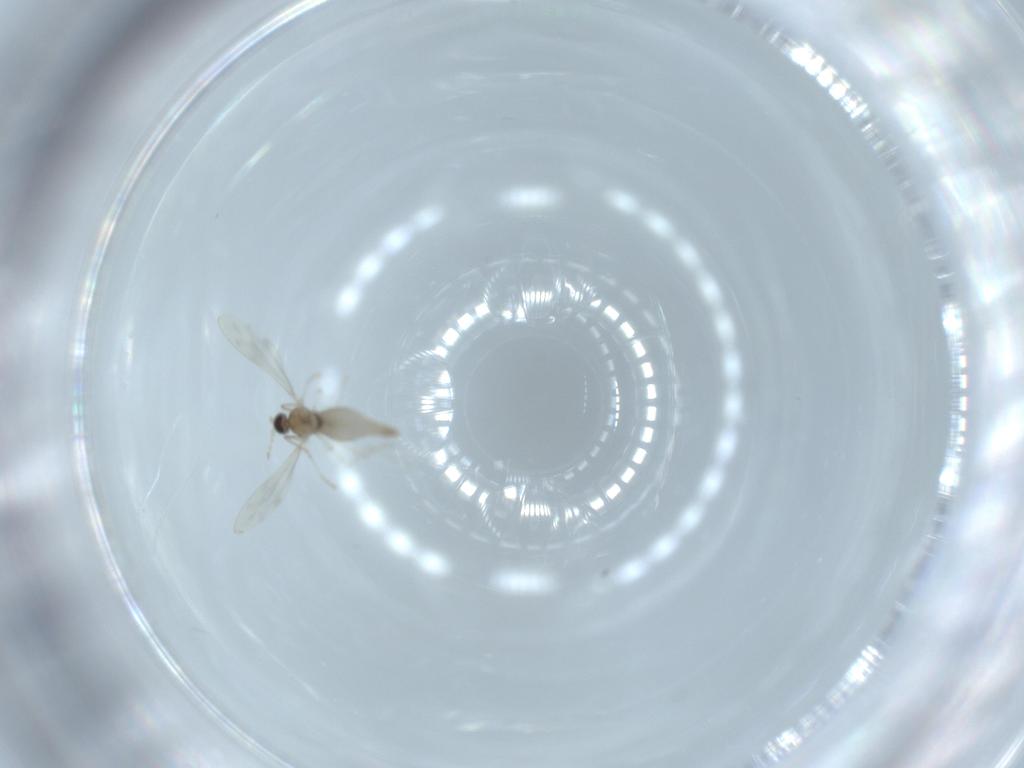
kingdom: Animalia
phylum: Arthropoda
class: Insecta
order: Diptera
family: Cecidomyiidae
